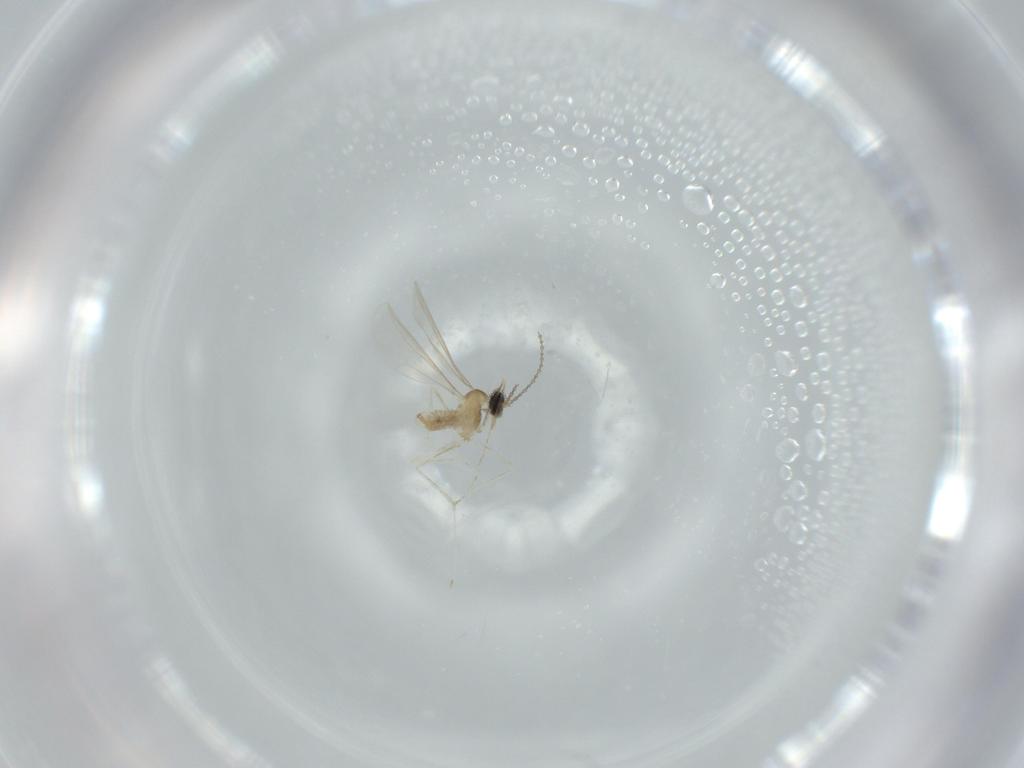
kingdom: Animalia
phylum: Arthropoda
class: Insecta
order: Diptera
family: Cecidomyiidae
